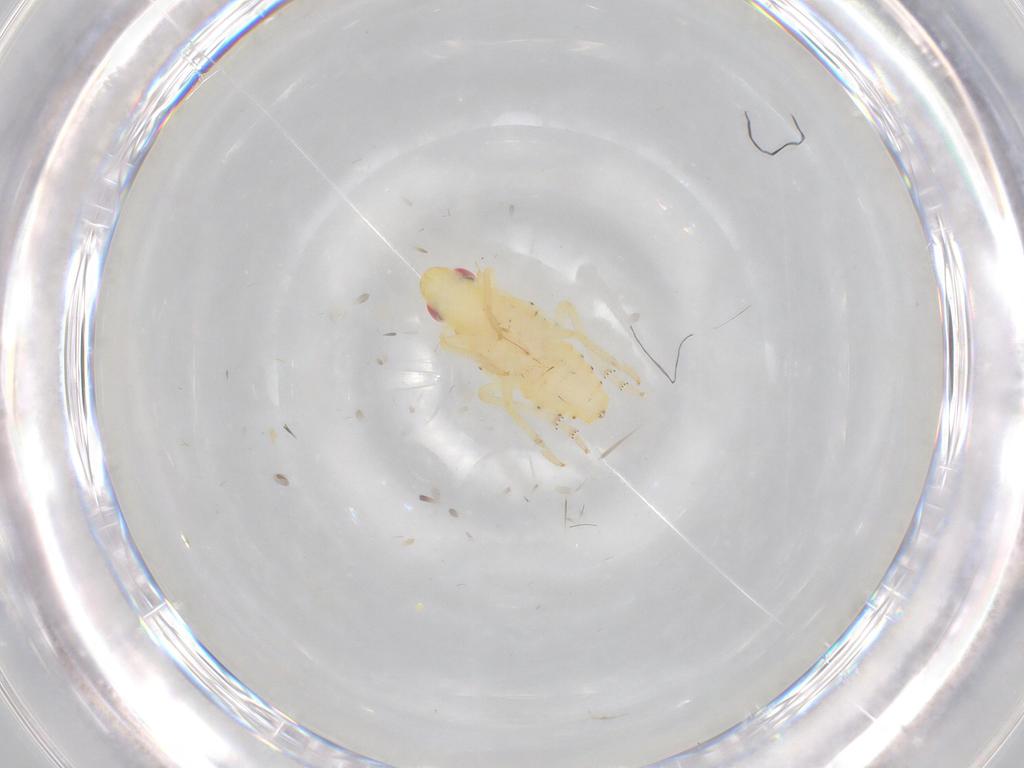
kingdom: Animalia
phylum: Arthropoda
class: Insecta
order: Hemiptera
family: Tropiduchidae
